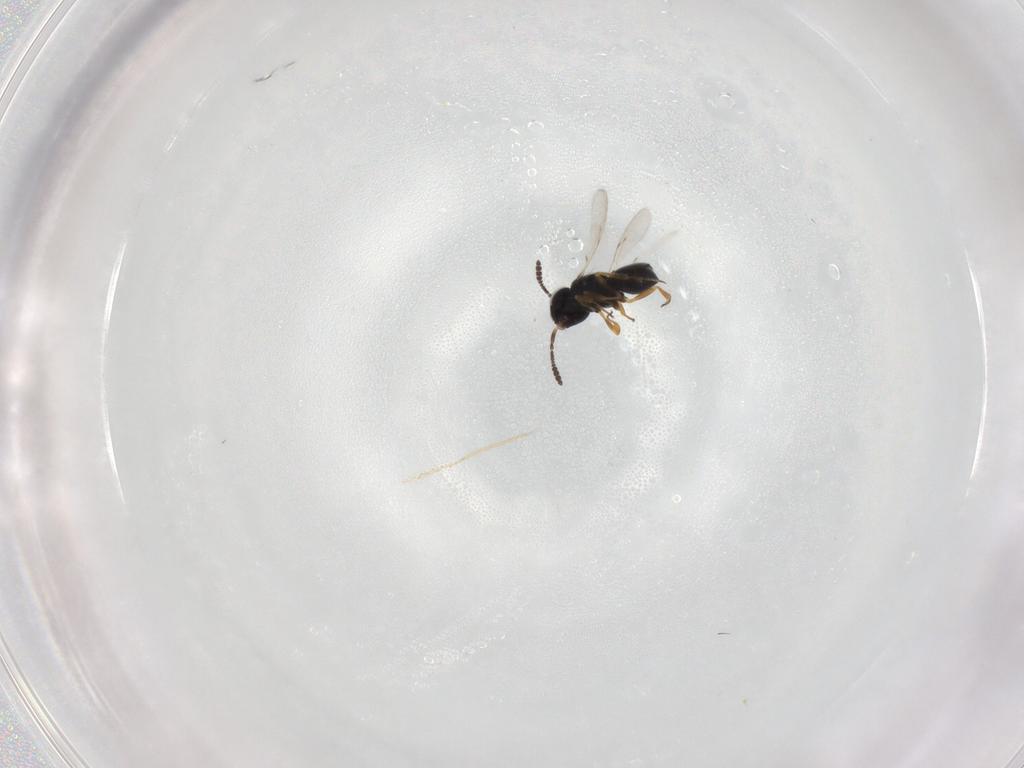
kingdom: Animalia
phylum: Arthropoda
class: Insecta
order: Hymenoptera
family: Scelionidae
